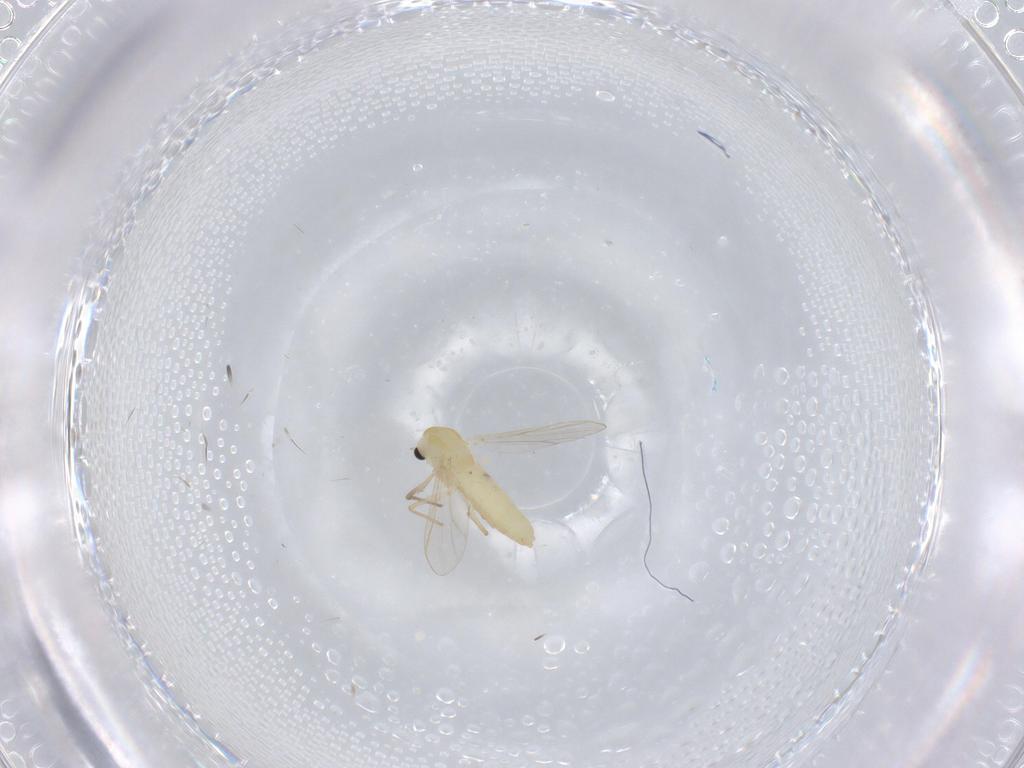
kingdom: Animalia
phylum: Arthropoda
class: Insecta
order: Diptera
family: Chironomidae
